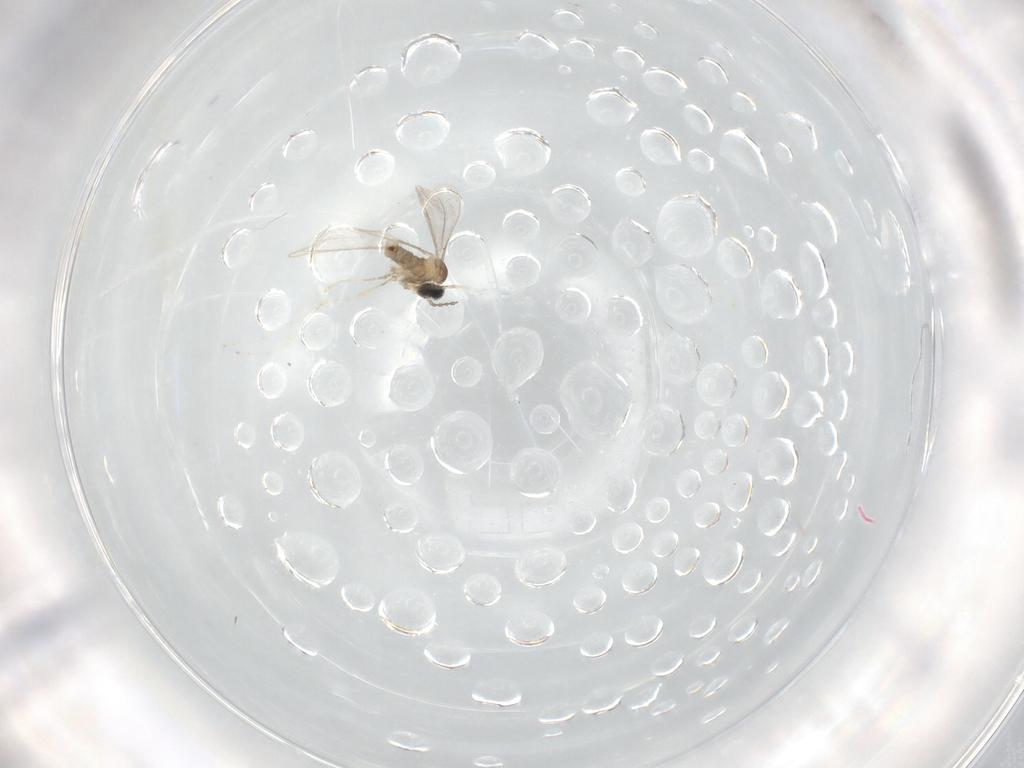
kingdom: Animalia
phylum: Arthropoda
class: Insecta
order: Diptera
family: Cecidomyiidae
